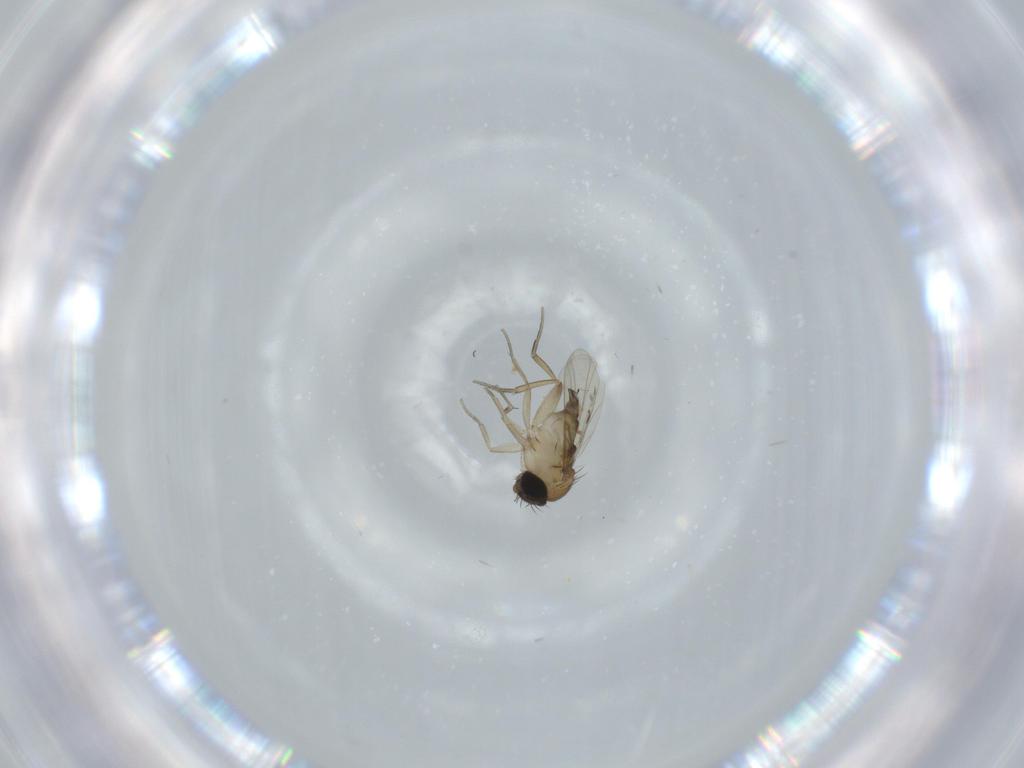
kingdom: Animalia
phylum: Arthropoda
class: Insecta
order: Diptera
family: Phoridae
